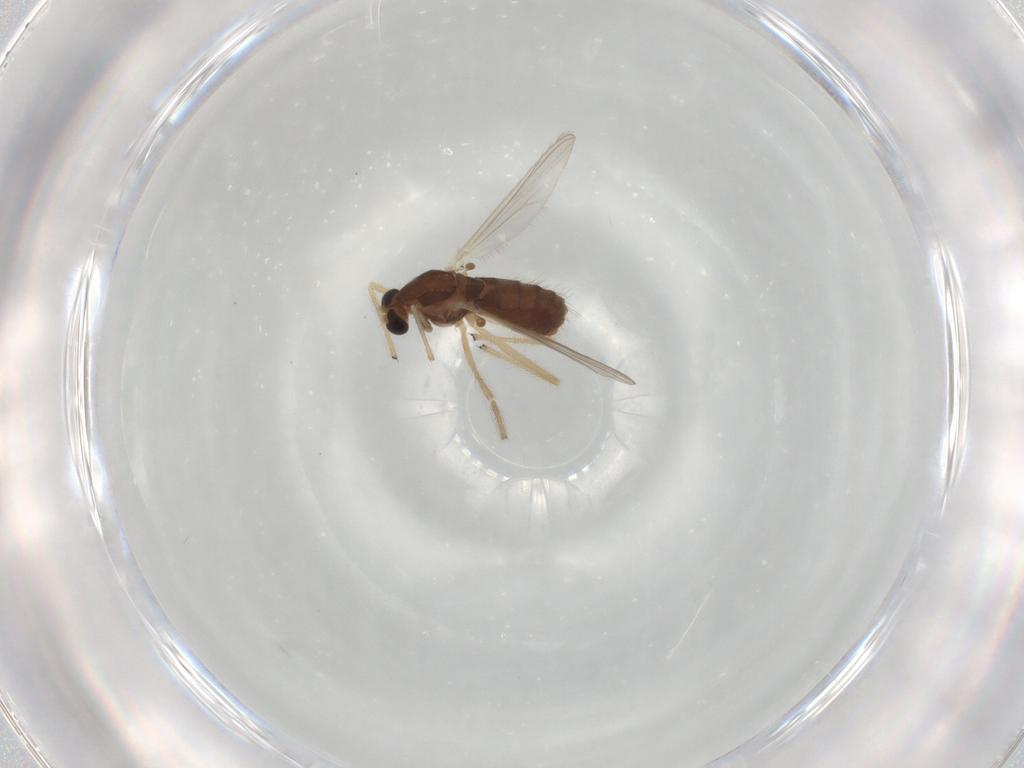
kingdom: Animalia
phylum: Arthropoda
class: Insecta
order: Diptera
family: Chironomidae
